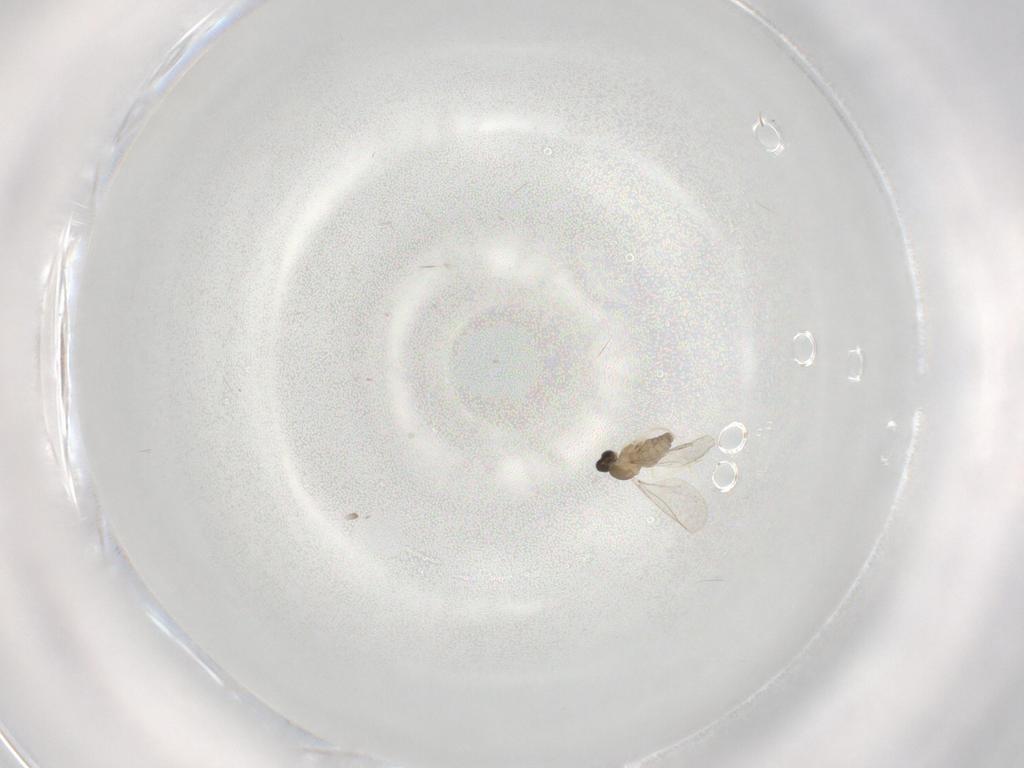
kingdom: Animalia
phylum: Arthropoda
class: Insecta
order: Diptera
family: Cecidomyiidae
